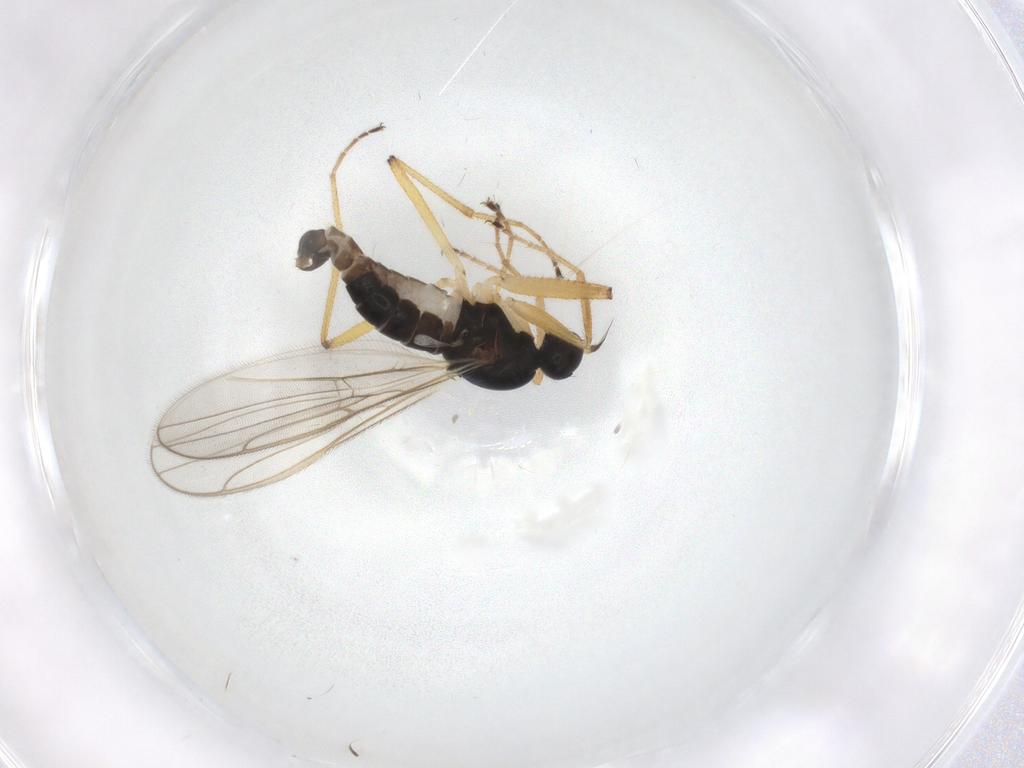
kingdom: Animalia
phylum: Arthropoda
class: Insecta
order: Diptera
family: Hybotidae
